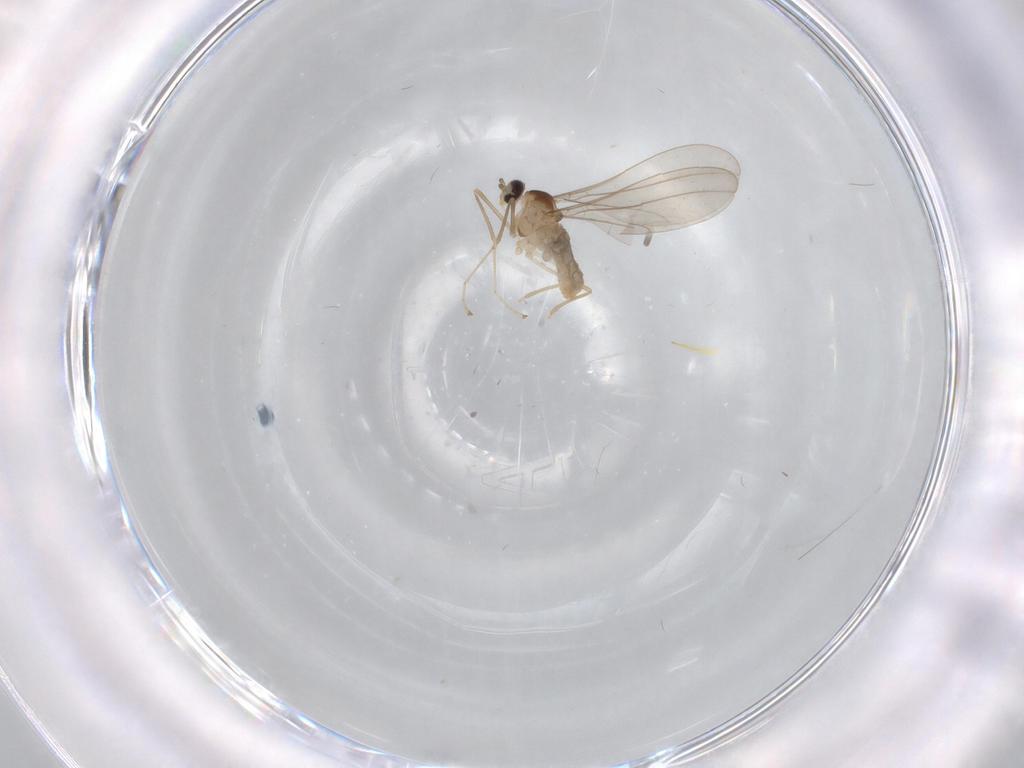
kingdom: Animalia
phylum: Arthropoda
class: Insecta
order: Diptera
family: Cecidomyiidae
